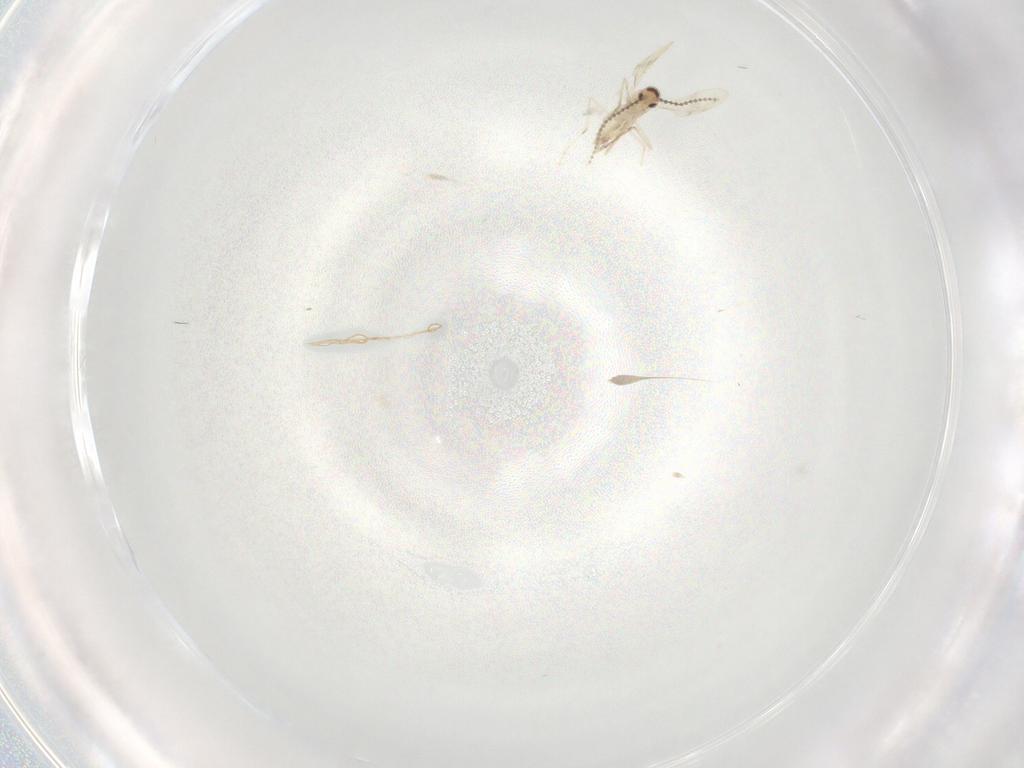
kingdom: Animalia
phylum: Arthropoda
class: Insecta
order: Diptera
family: Cecidomyiidae
